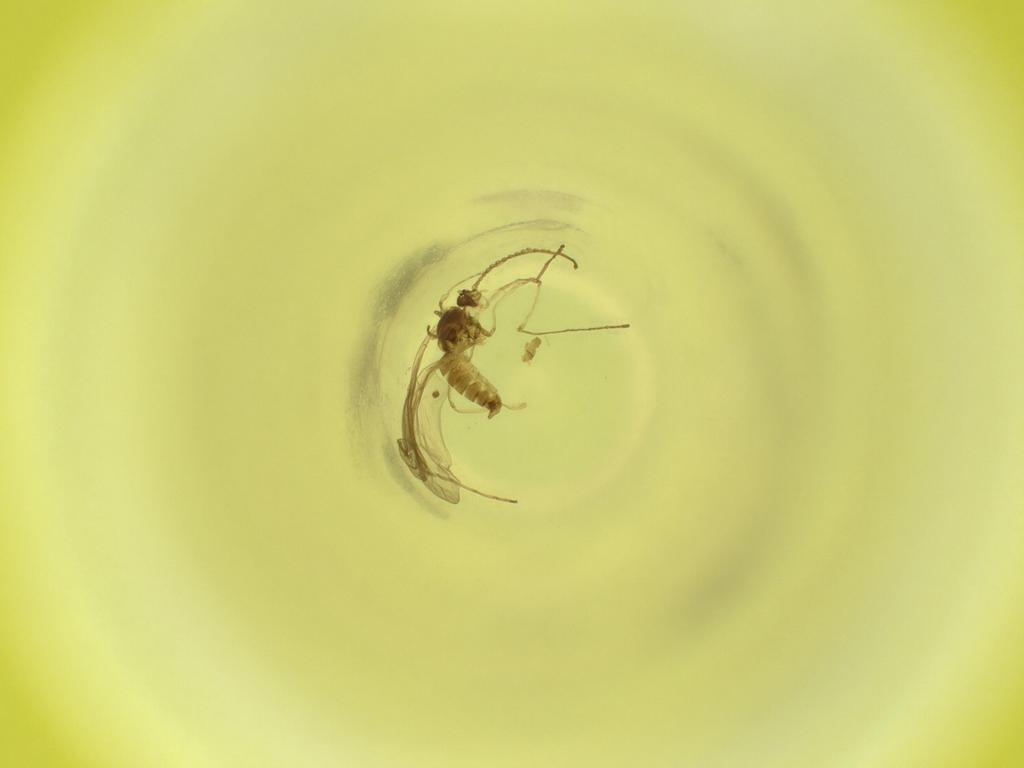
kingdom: Animalia
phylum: Arthropoda
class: Insecta
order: Diptera
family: Cecidomyiidae
